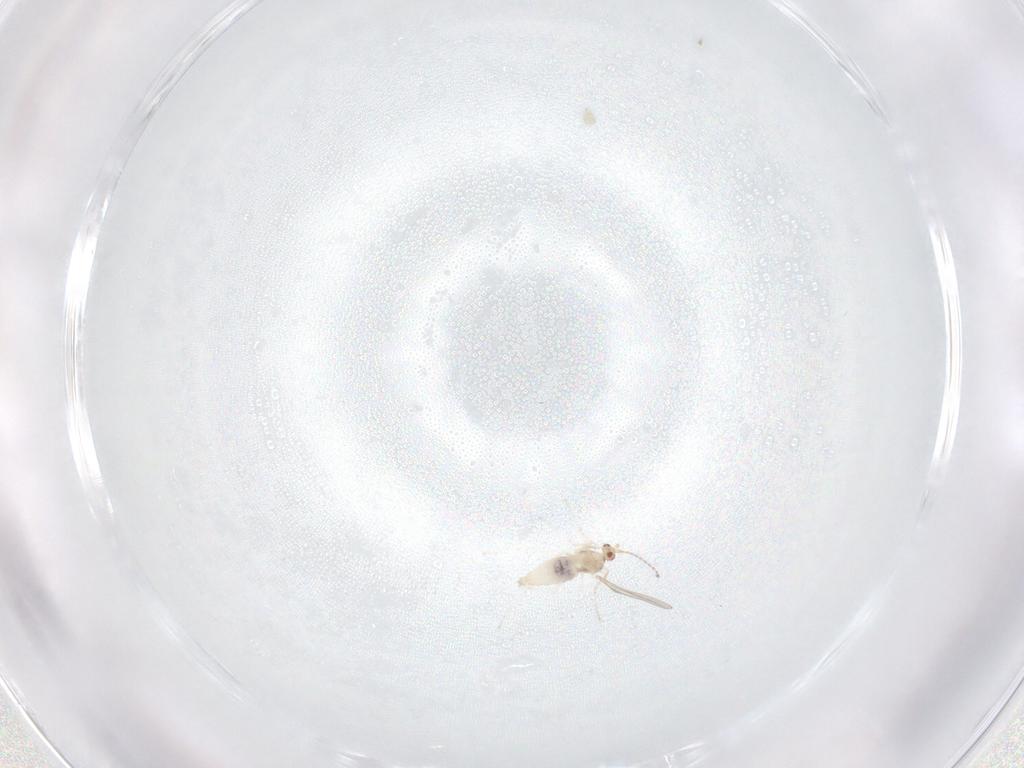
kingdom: Animalia
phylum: Arthropoda
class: Insecta
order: Diptera
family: Cecidomyiidae
